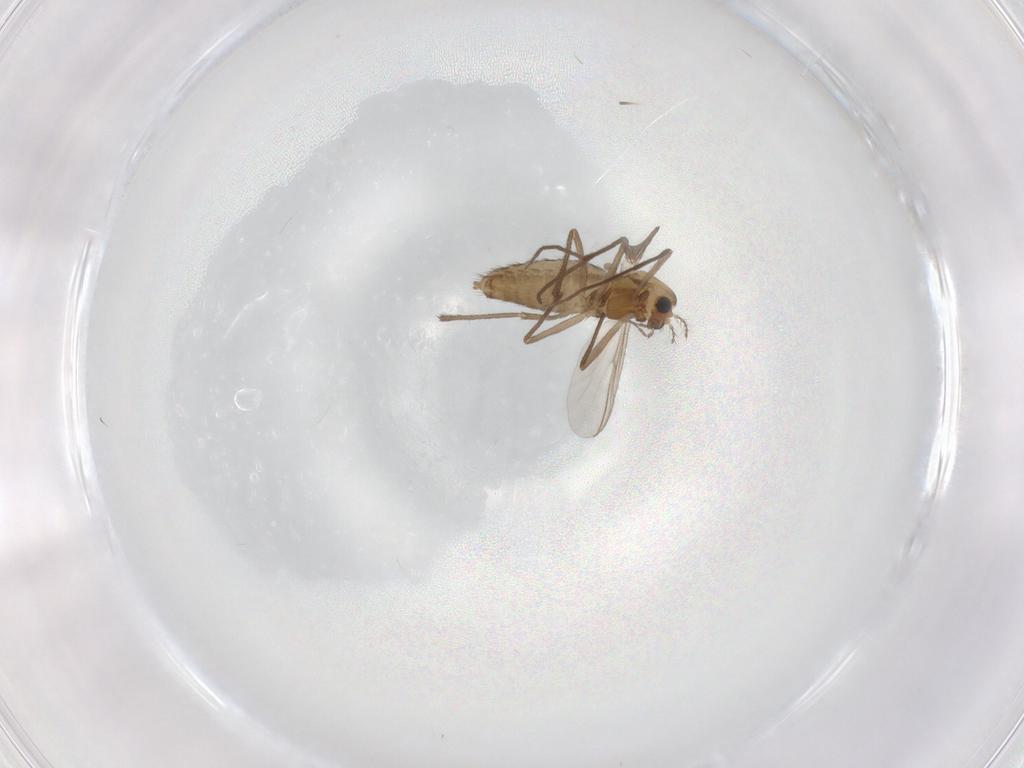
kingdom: Animalia
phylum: Arthropoda
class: Insecta
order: Diptera
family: Chironomidae
